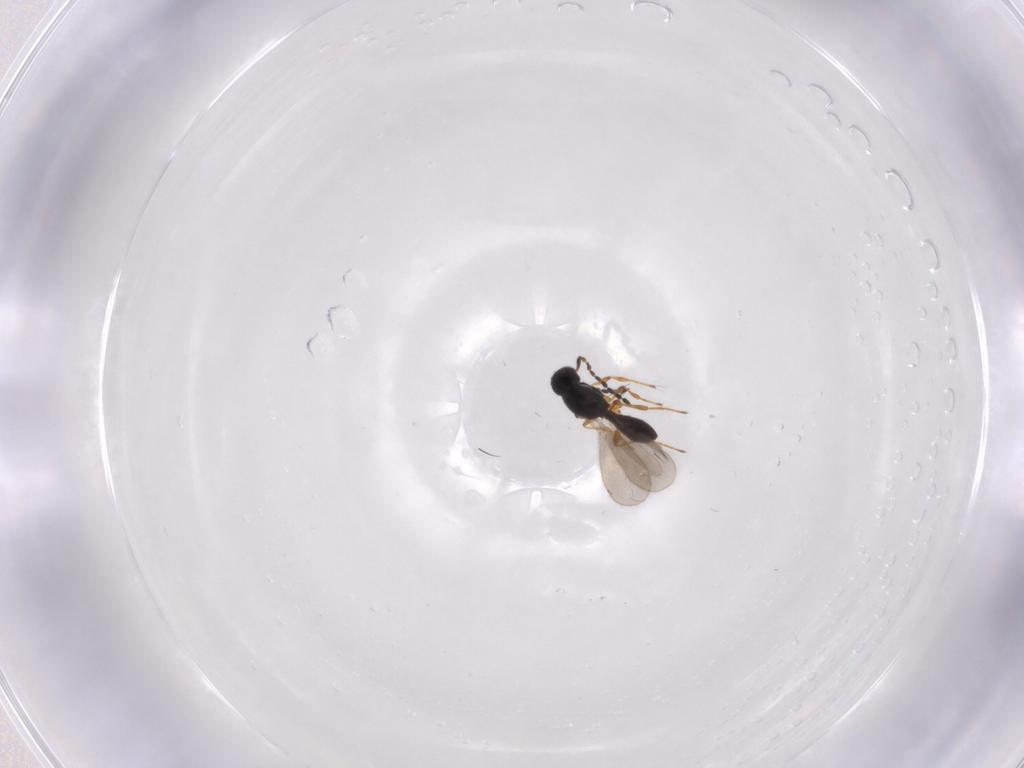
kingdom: Animalia
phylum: Arthropoda
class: Insecta
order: Hymenoptera
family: Platygastridae
